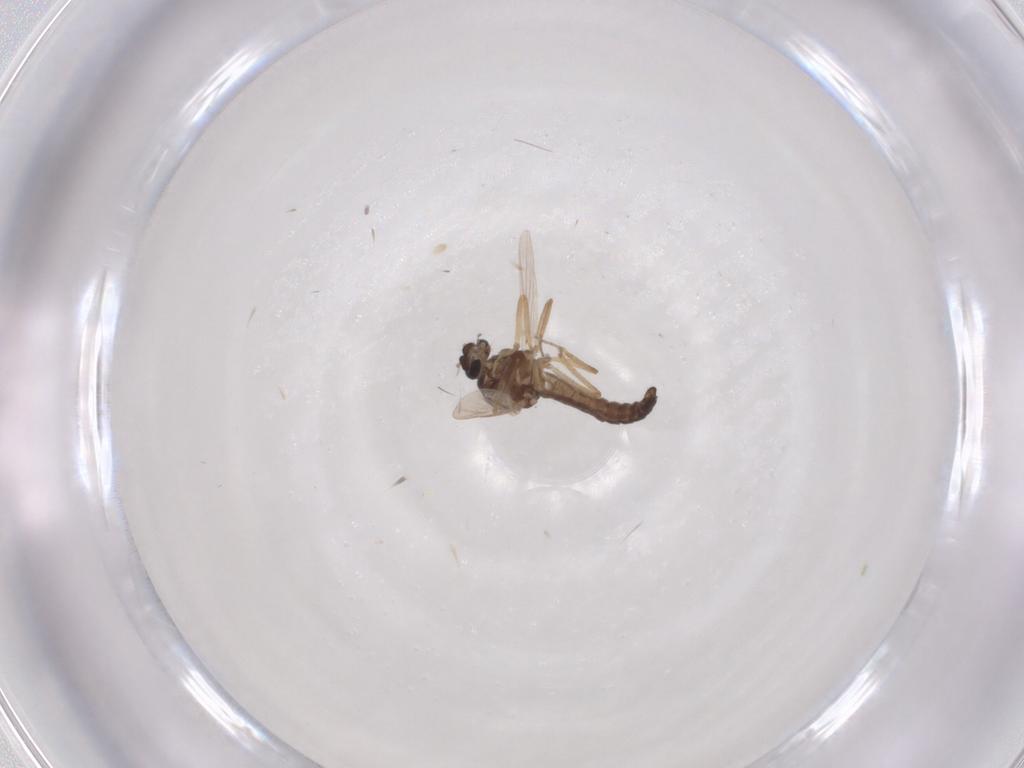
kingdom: Animalia
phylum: Arthropoda
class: Insecta
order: Diptera
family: Ceratopogonidae
